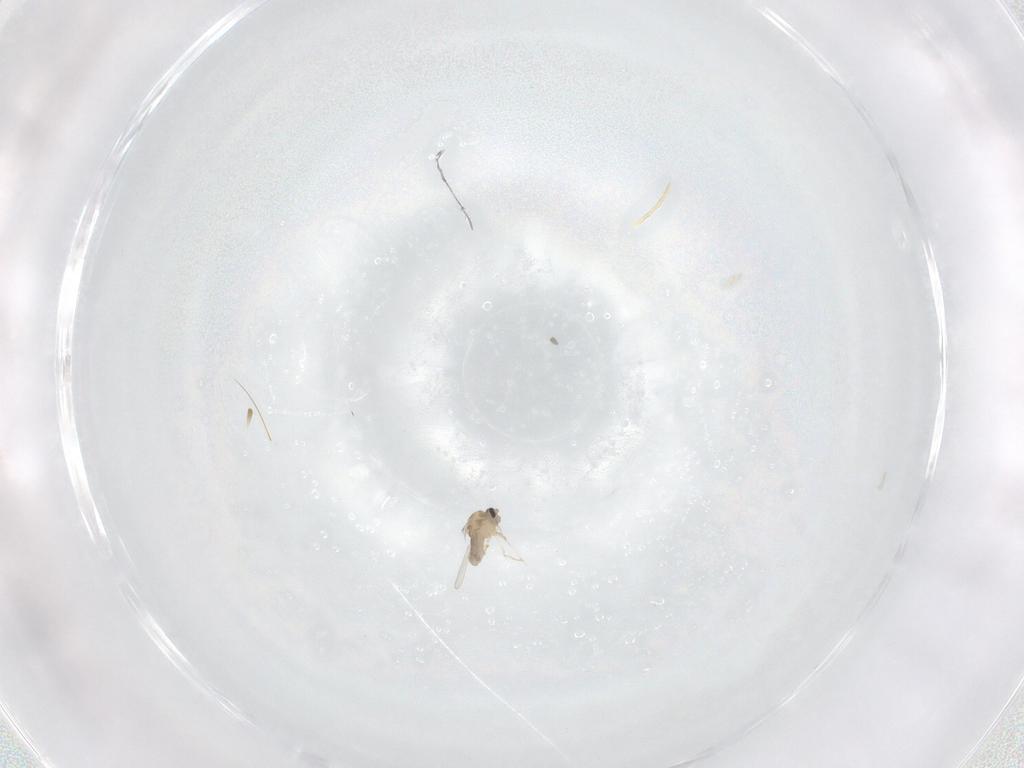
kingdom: Animalia
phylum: Arthropoda
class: Insecta
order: Diptera
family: Ceratopogonidae
